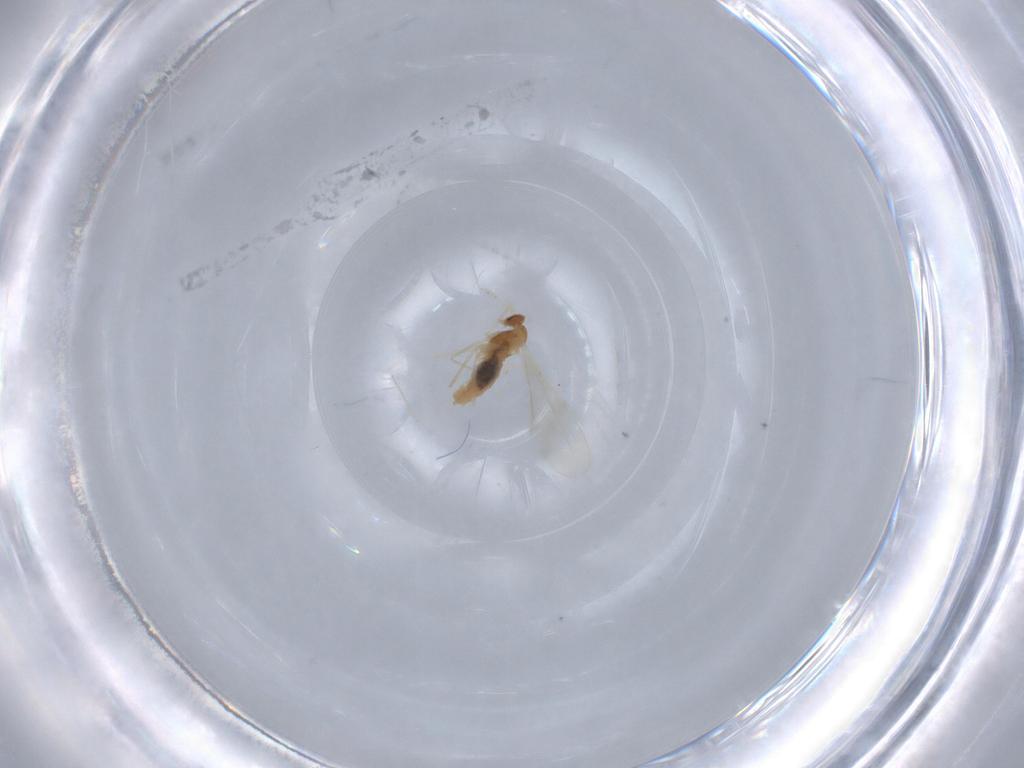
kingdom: Animalia
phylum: Arthropoda
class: Insecta
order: Diptera
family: Cecidomyiidae
